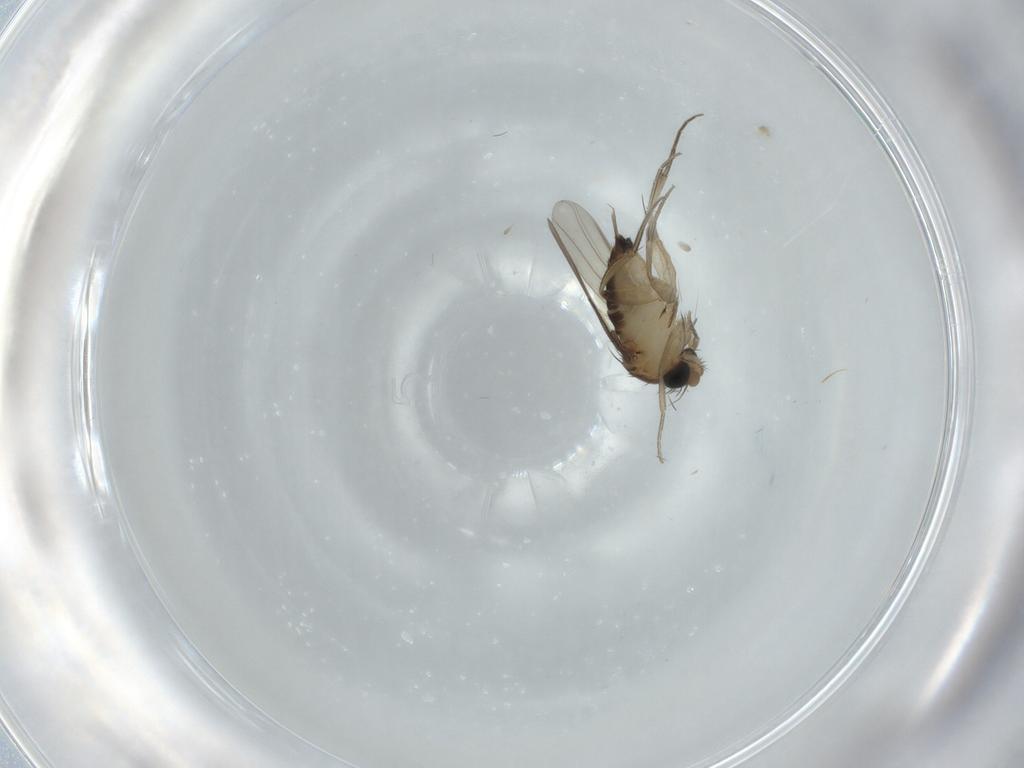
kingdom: Animalia
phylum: Arthropoda
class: Insecta
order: Diptera
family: Phoridae
